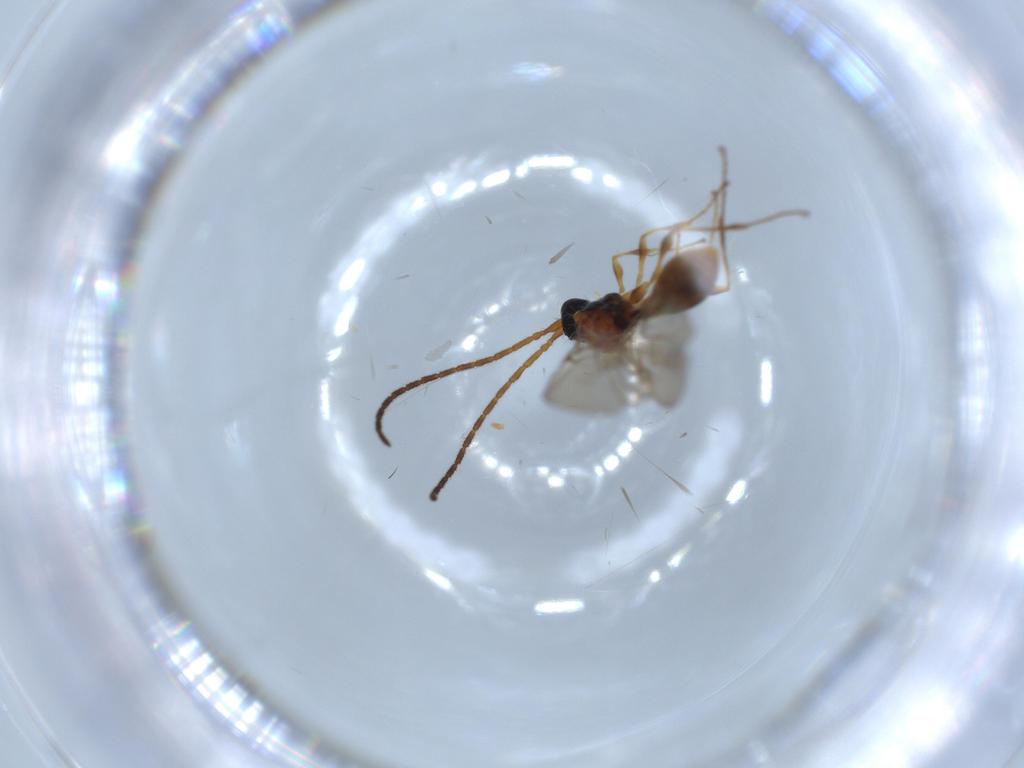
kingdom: Animalia
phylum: Arthropoda
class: Insecta
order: Hymenoptera
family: Diapriidae
